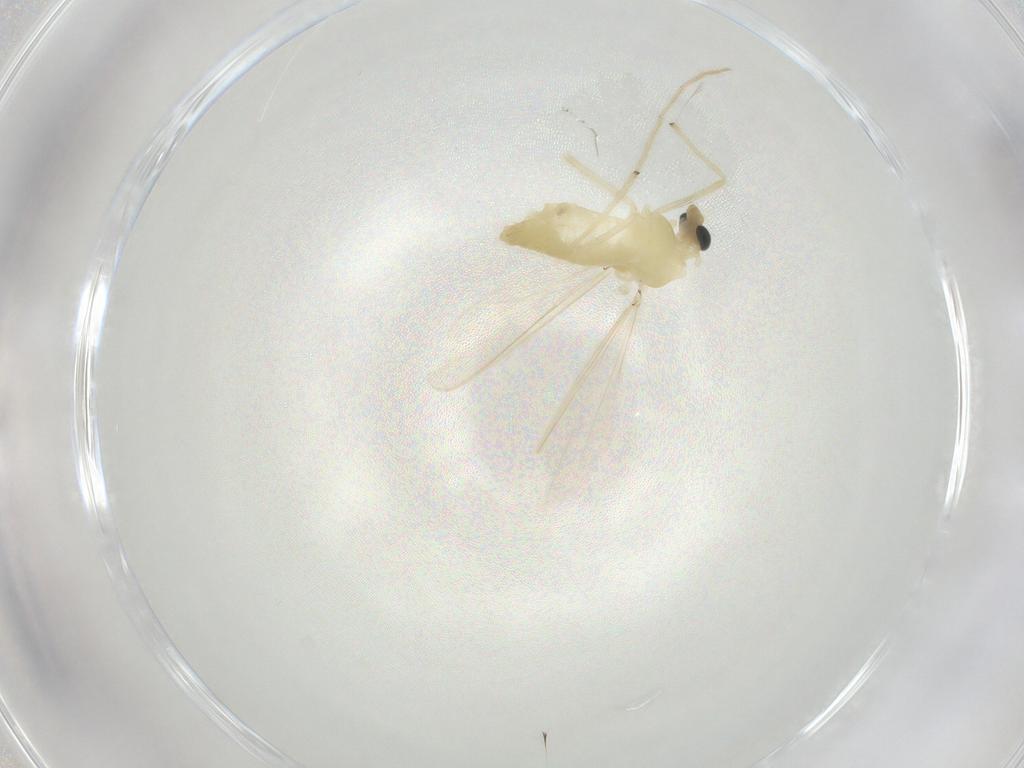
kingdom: Animalia
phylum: Arthropoda
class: Insecta
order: Diptera
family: Chironomidae
